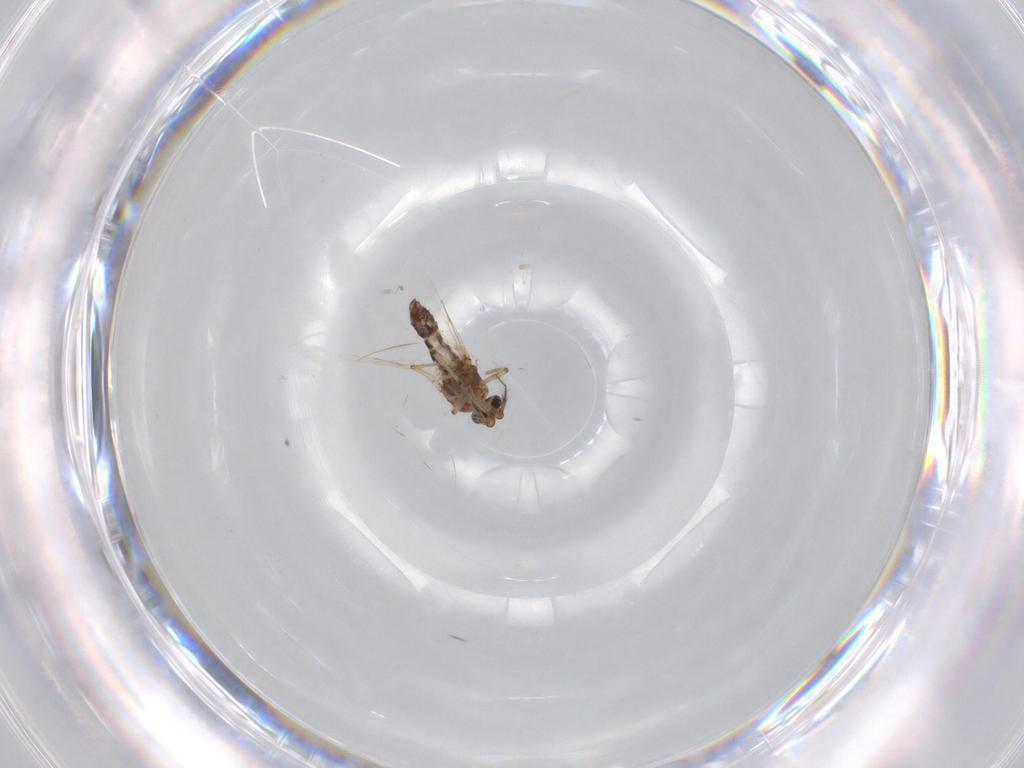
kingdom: Animalia
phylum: Arthropoda
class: Insecta
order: Diptera
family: Ceratopogonidae
